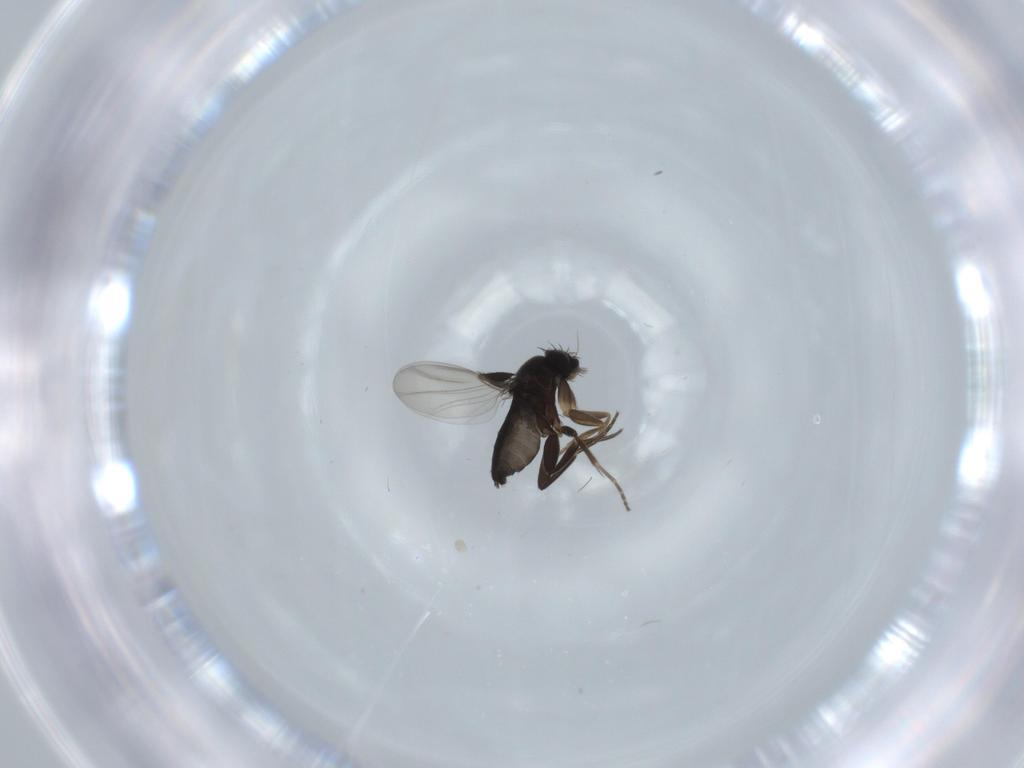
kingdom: Animalia
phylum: Arthropoda
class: Insecta
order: Diptera
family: Phoridae
